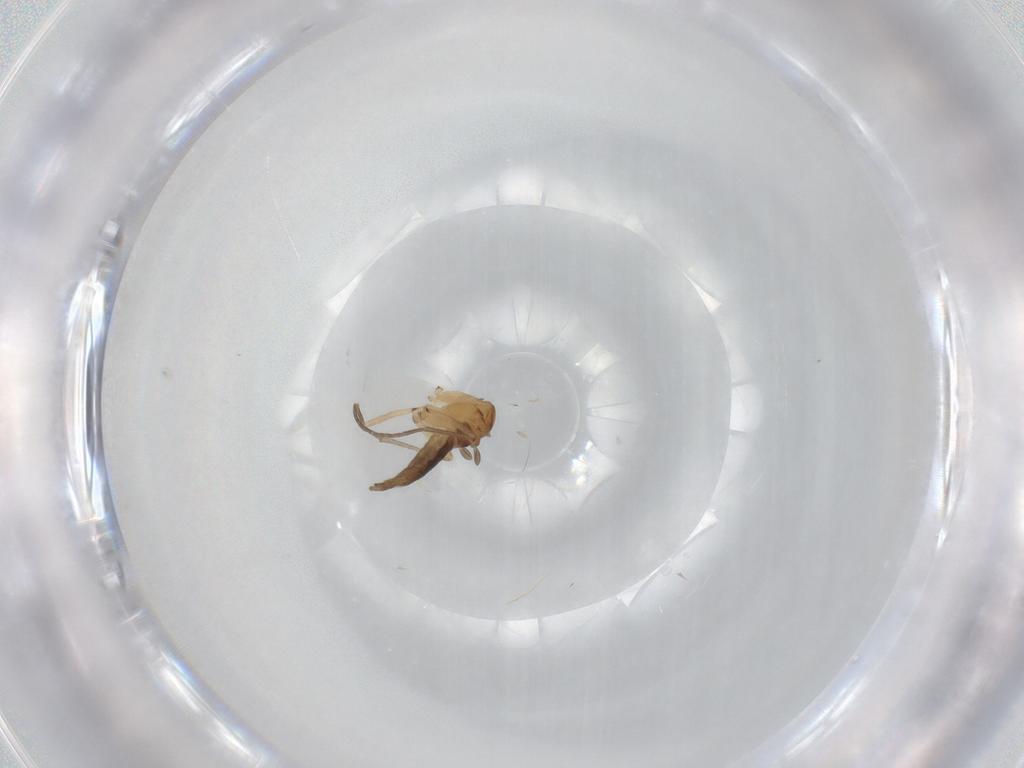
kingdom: Animalia
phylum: Arthropoda
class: Insecta
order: Diptera
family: Sciaridae
